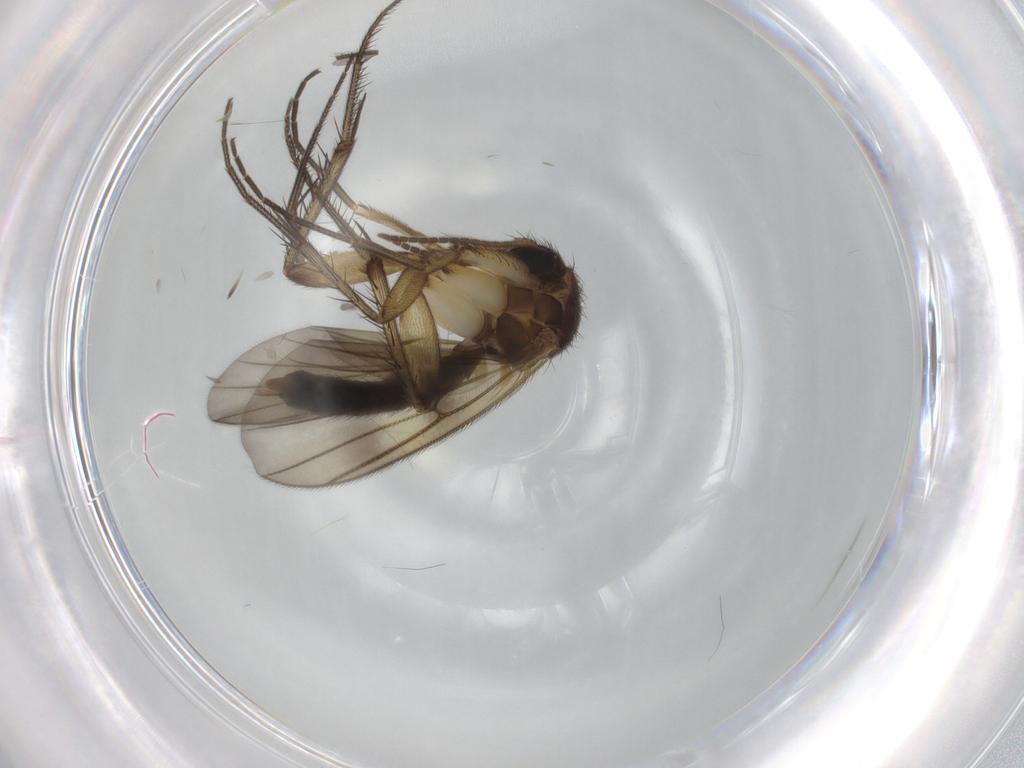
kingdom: Animalia
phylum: Arthropoda
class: Insecta
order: Diptera
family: Mycetophilidae
